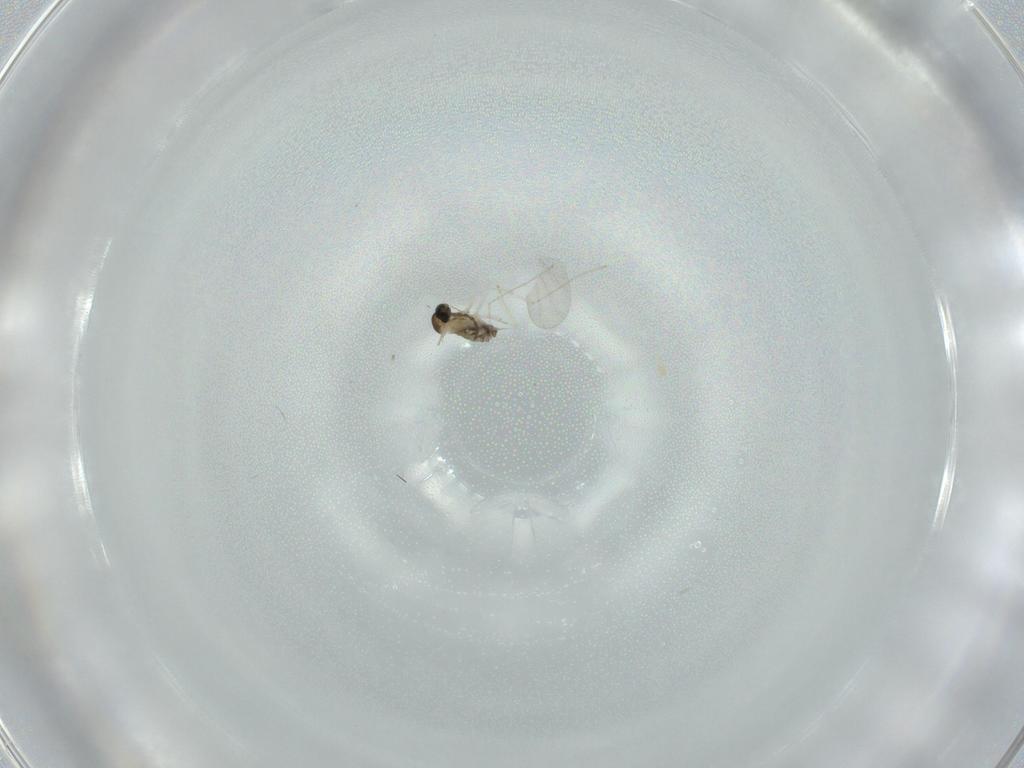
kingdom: Animalia
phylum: Arthropoda
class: Insecta
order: Diptera
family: Cecidomyiidae
